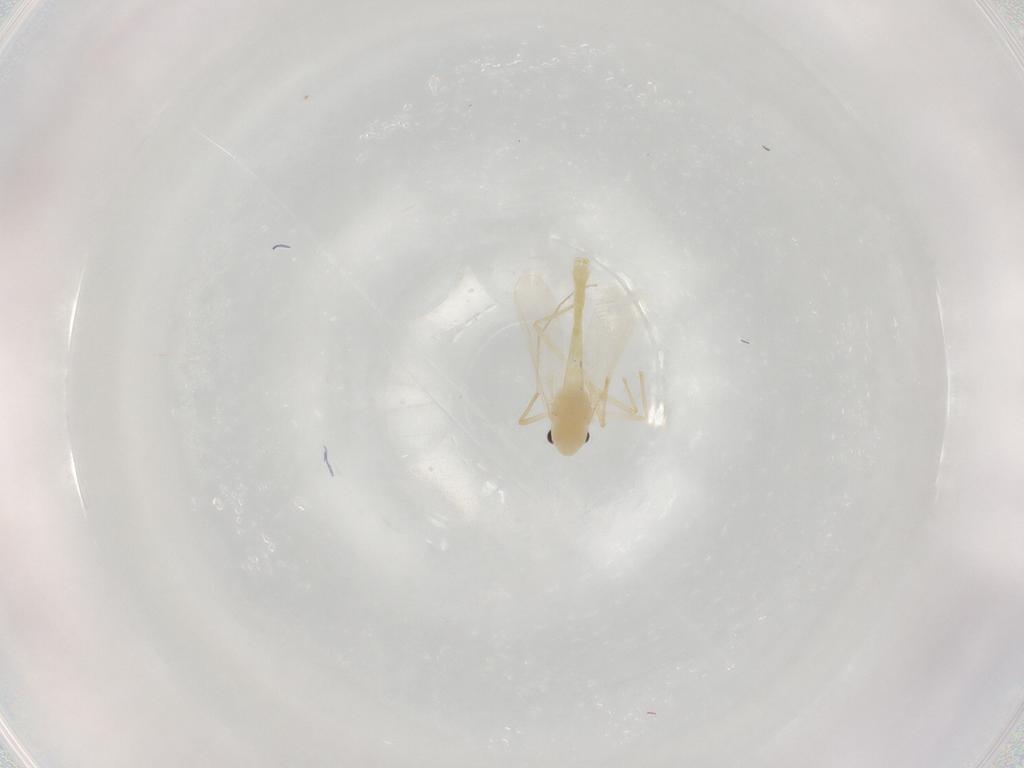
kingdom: Animalia
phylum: Arthropoda
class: Insecta
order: Diptera
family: Chironomidae
